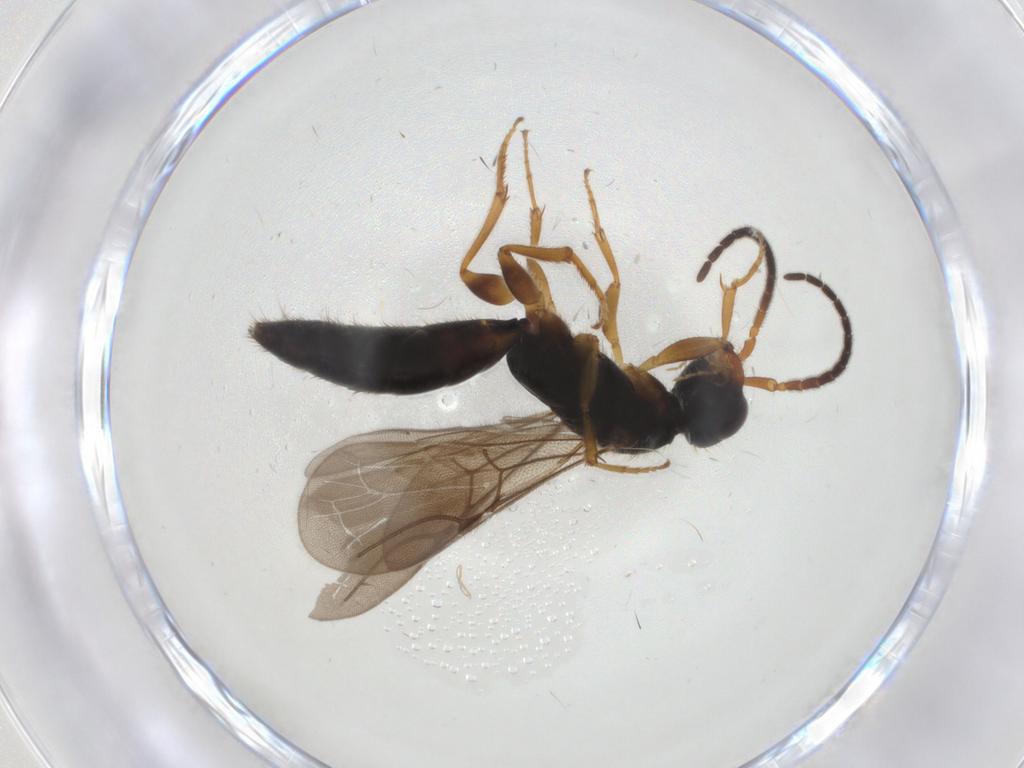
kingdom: Animalia
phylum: Arthropoda
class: Insecta
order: Hymenoptera
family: Bethylidae
